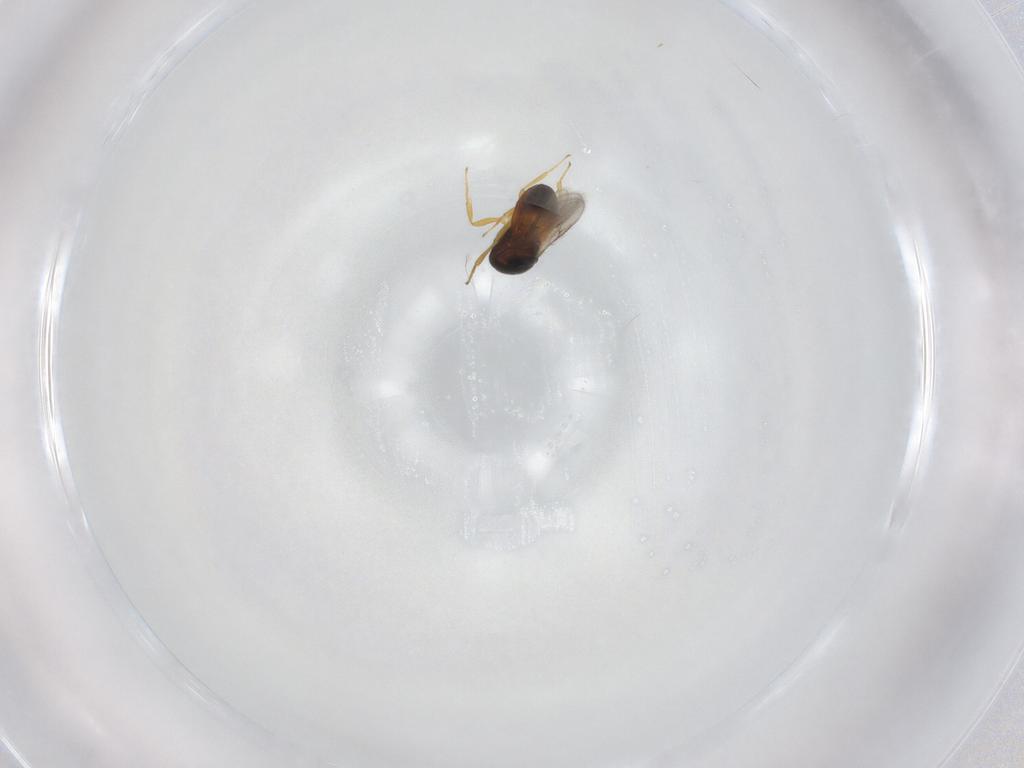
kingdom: Animalia
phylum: Arthropoda
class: Insecta
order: Hymenoptera
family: Scelionidae
